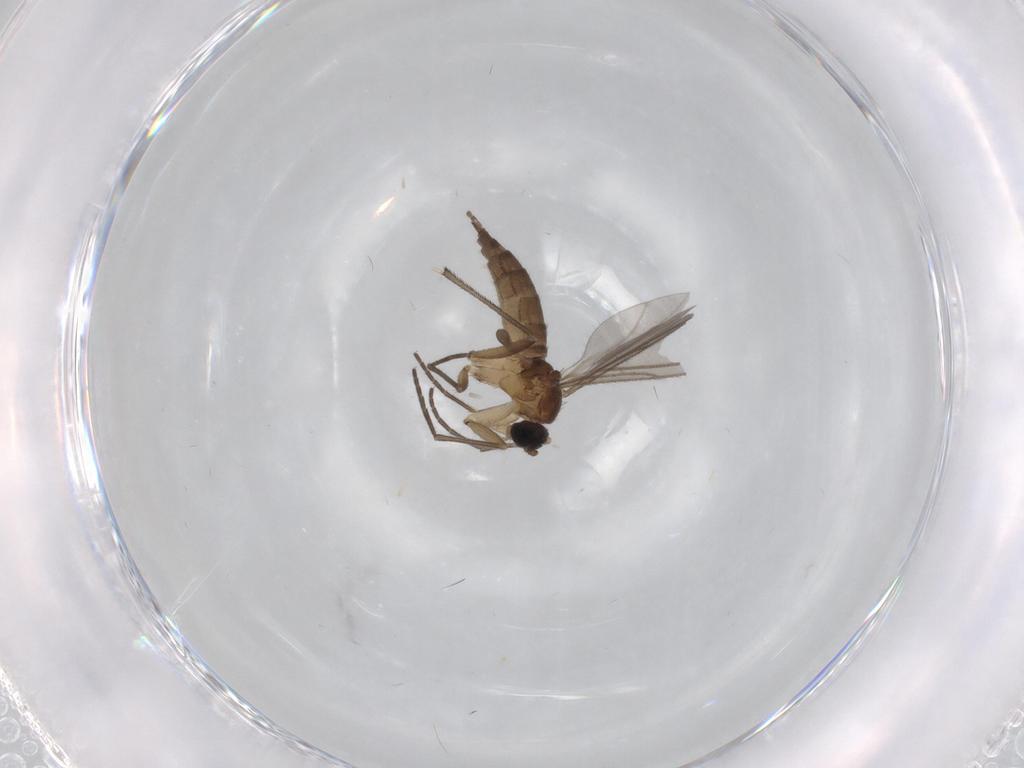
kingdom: Animalia
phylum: Arthropoda
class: Insecta
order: Diptera
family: Sciaridae
